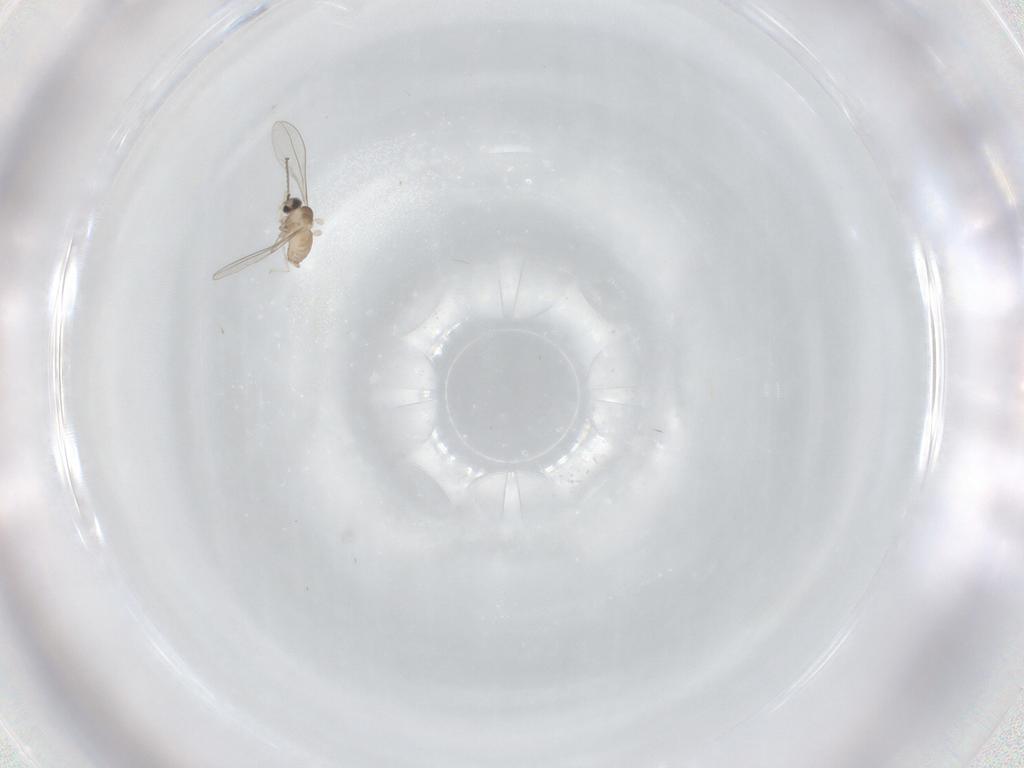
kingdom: Animalia
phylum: Arthropoda
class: Insecta
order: Diptera
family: Cecidomyiidae
